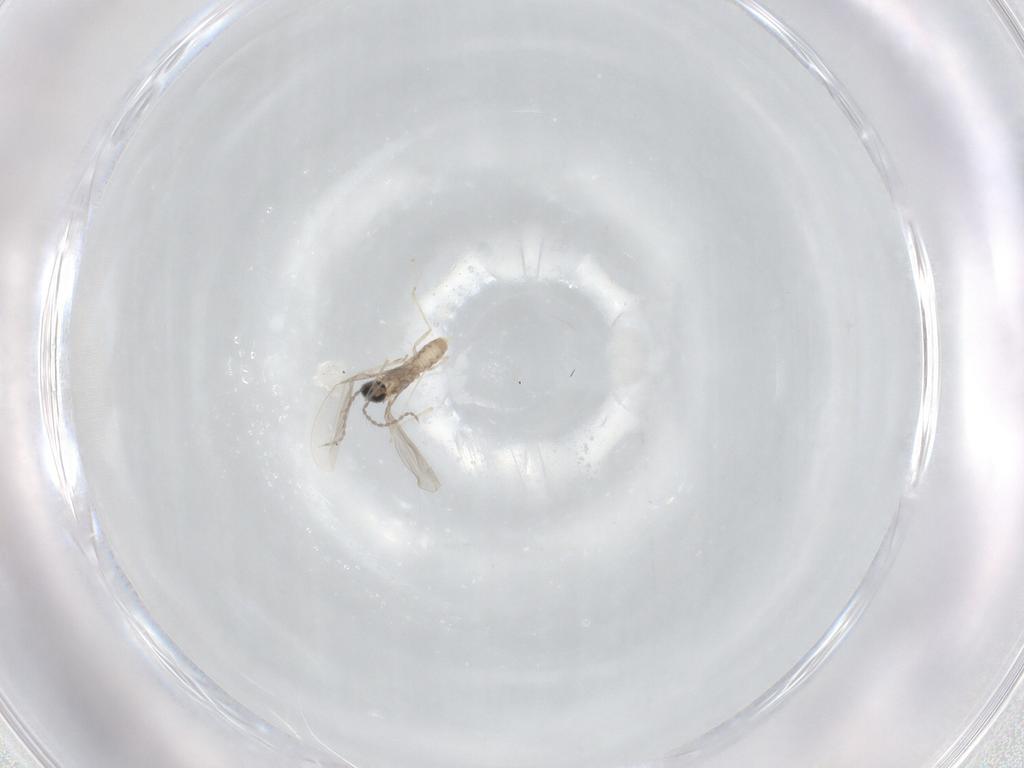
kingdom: Animalia
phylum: Arthropoda
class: Insecta
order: Diptera
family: Cecidomyiidae
